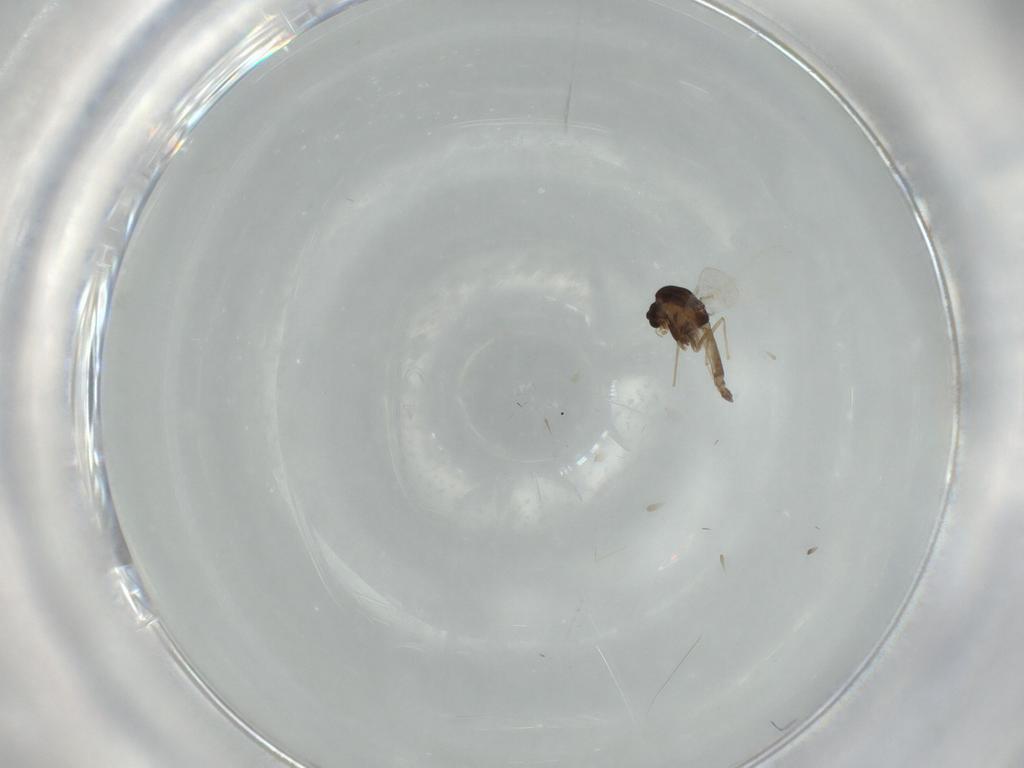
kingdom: Animalia
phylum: Arthropoda
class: Insecta
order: Diptera
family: Chironomidae
